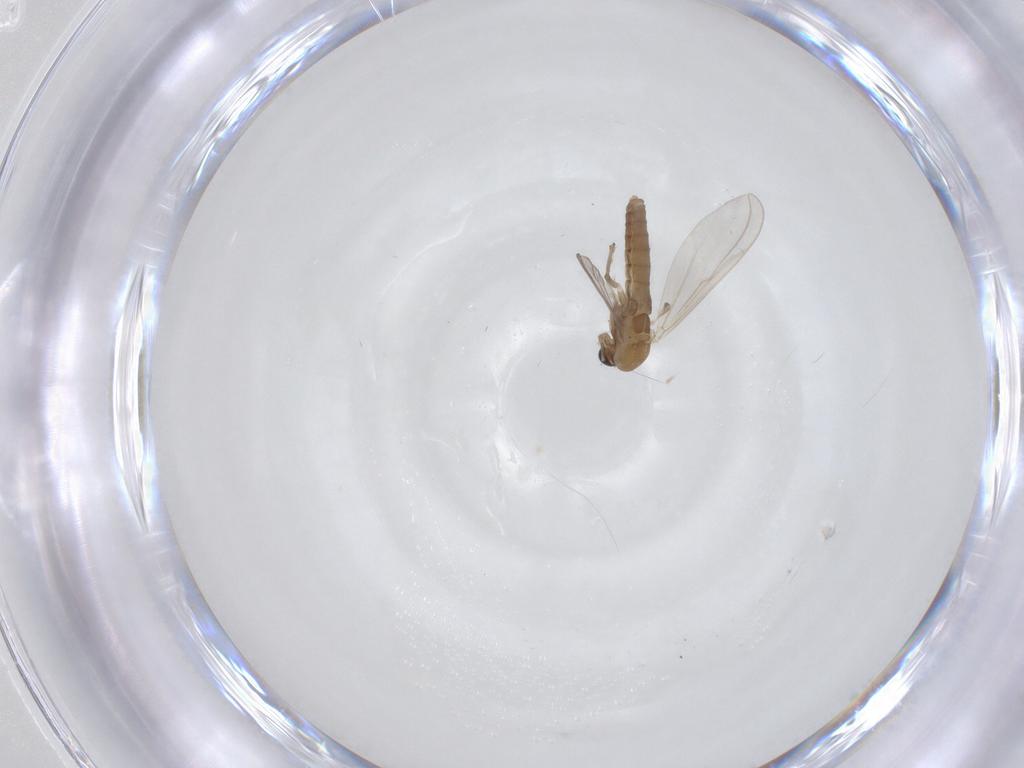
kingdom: Animalia
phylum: Arthropoda
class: Insecta
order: Diptera
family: Chironomidae
